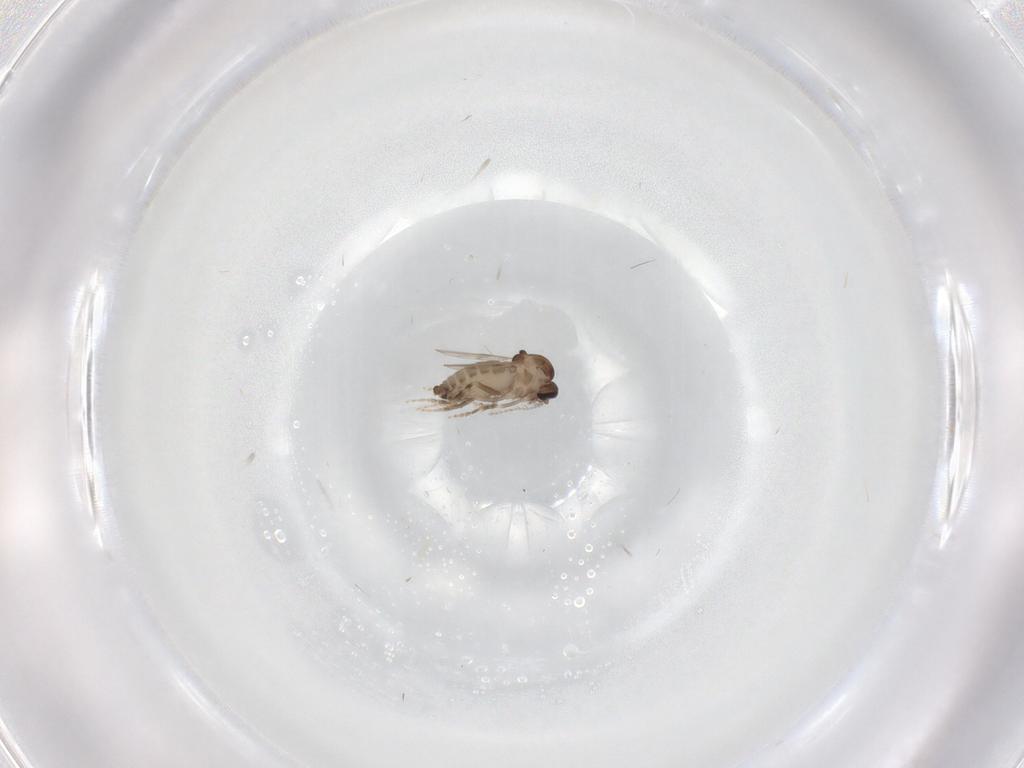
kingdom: Animalia
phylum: Arthropoda
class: Insecta
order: Diptera
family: Ceratopogonidae
